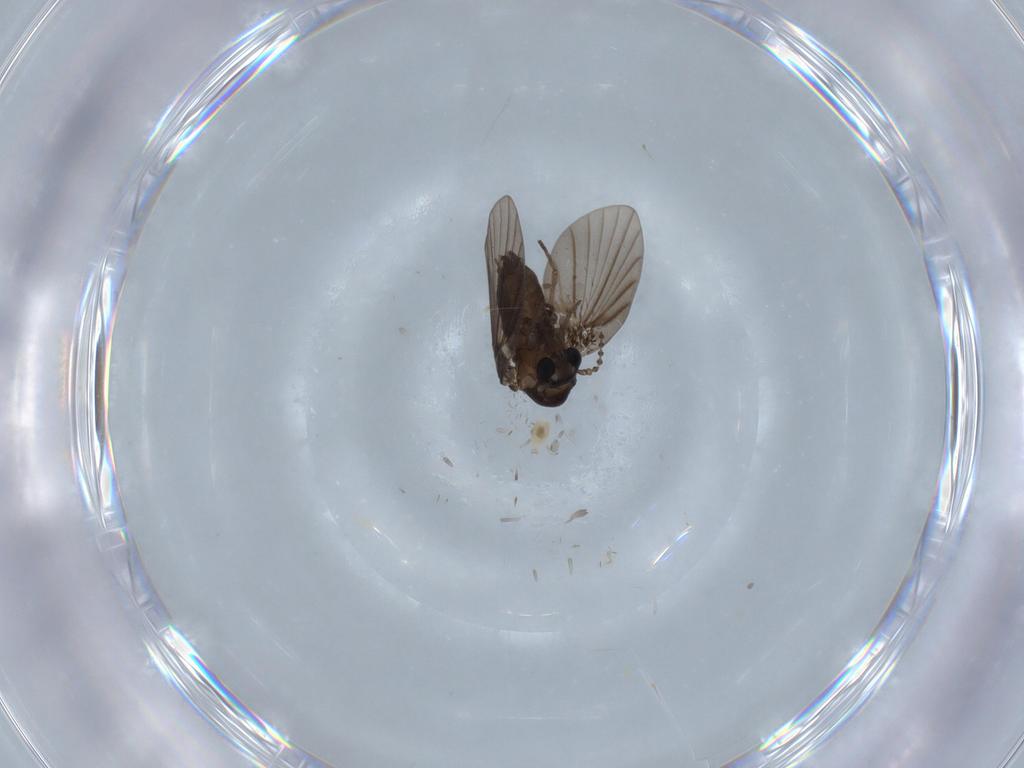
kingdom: Animalia
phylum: Arthropoda
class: Insecta
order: Diptera
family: Psychodidae
